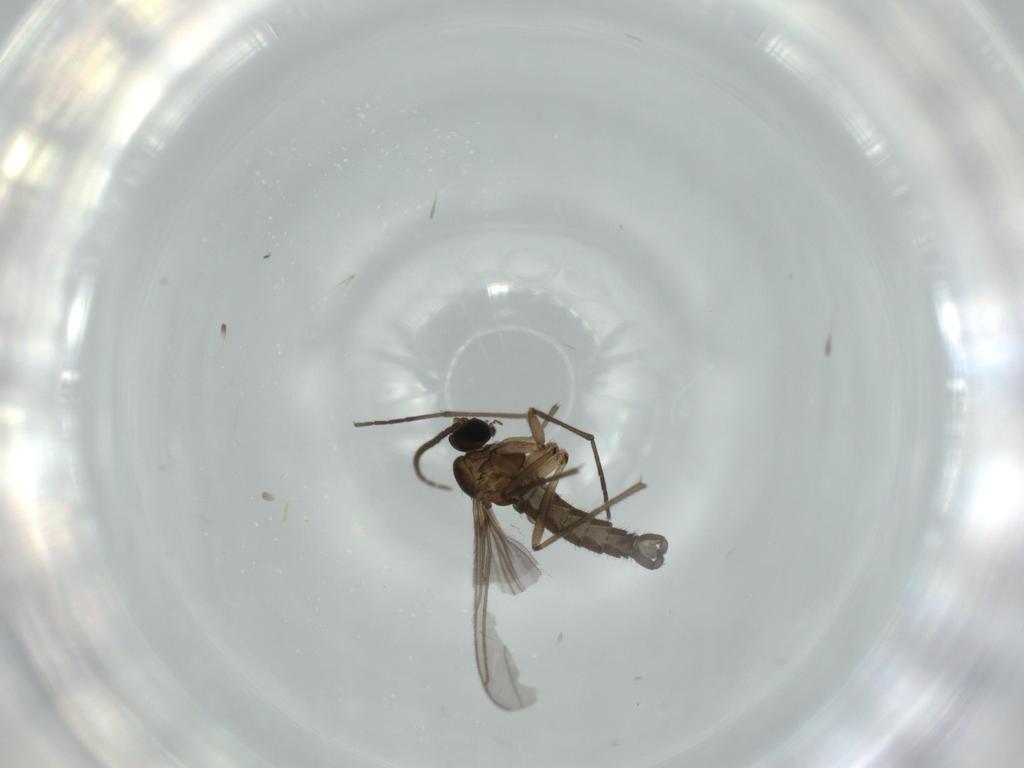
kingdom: Animalia
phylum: Arthropoda
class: Insecta
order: Diptera
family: Sciaridae
